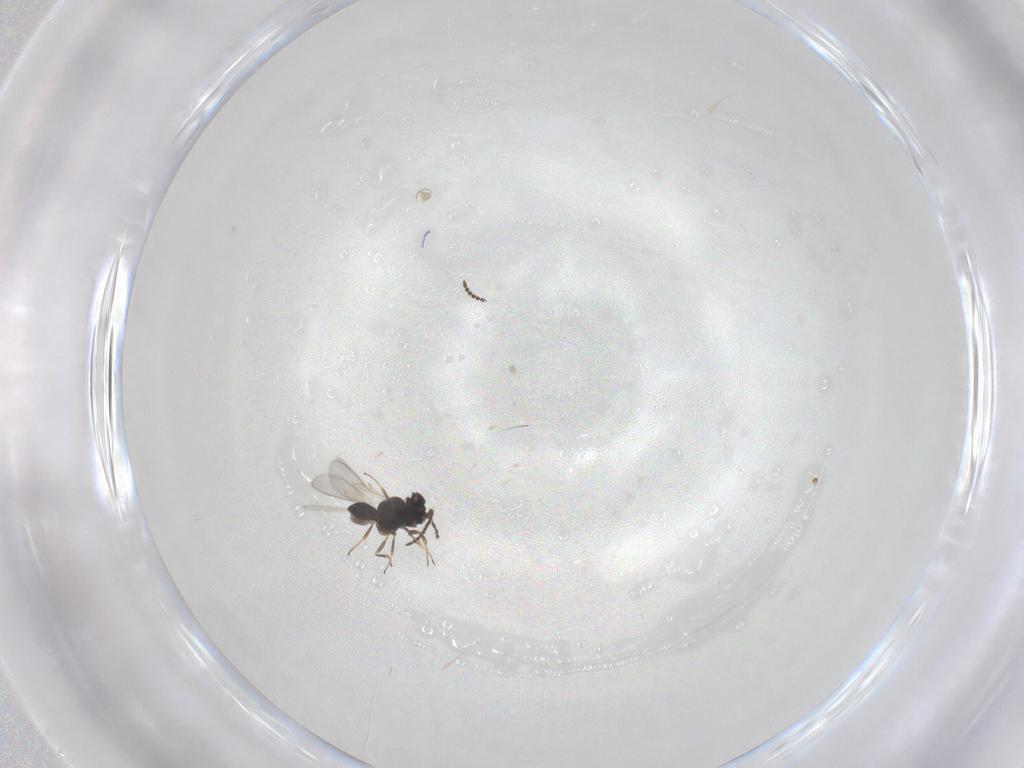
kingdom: Animalia
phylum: Arthropoda
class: Insecta
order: Hymenoptera
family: Scelionidae
